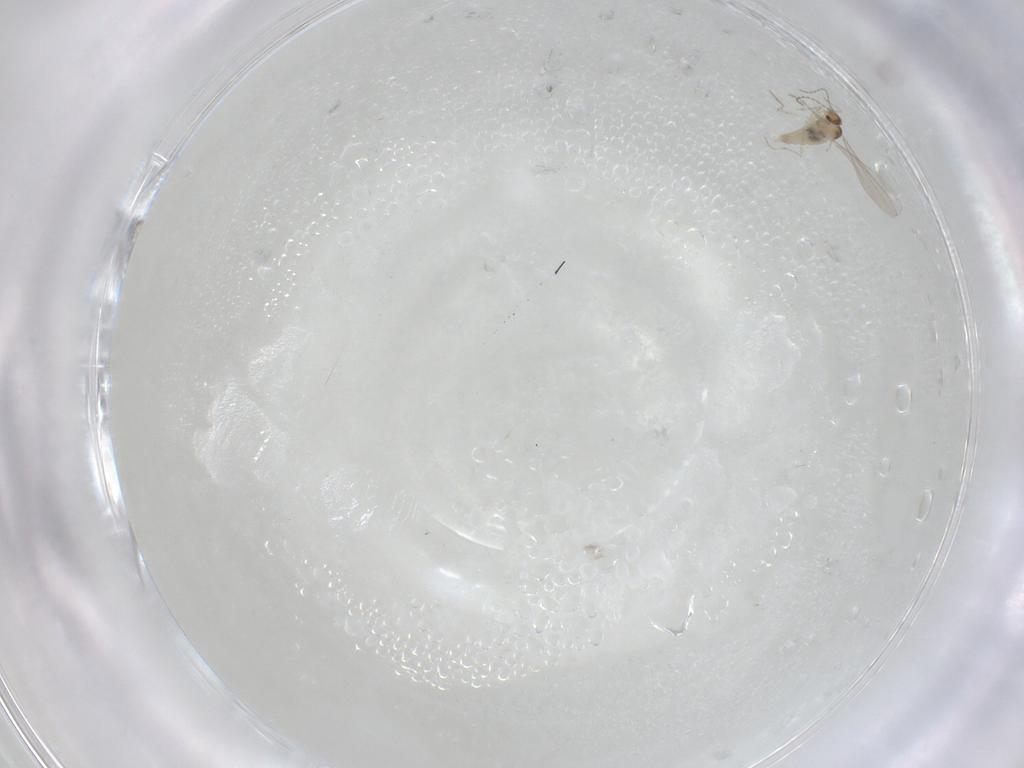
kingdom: Animalia
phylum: Arthropoda
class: Insecta
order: Diptera
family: Cecidomyiidae
